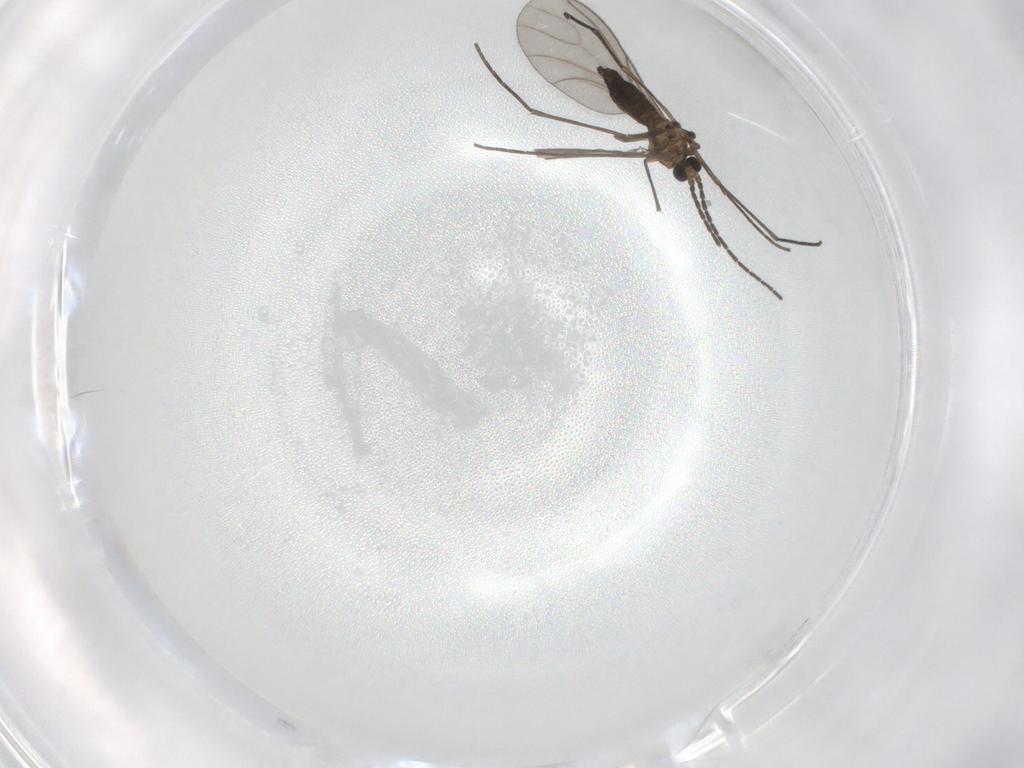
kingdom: Animalia
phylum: Arthropoda
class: Insecta
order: Diptera
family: Sciaridae
